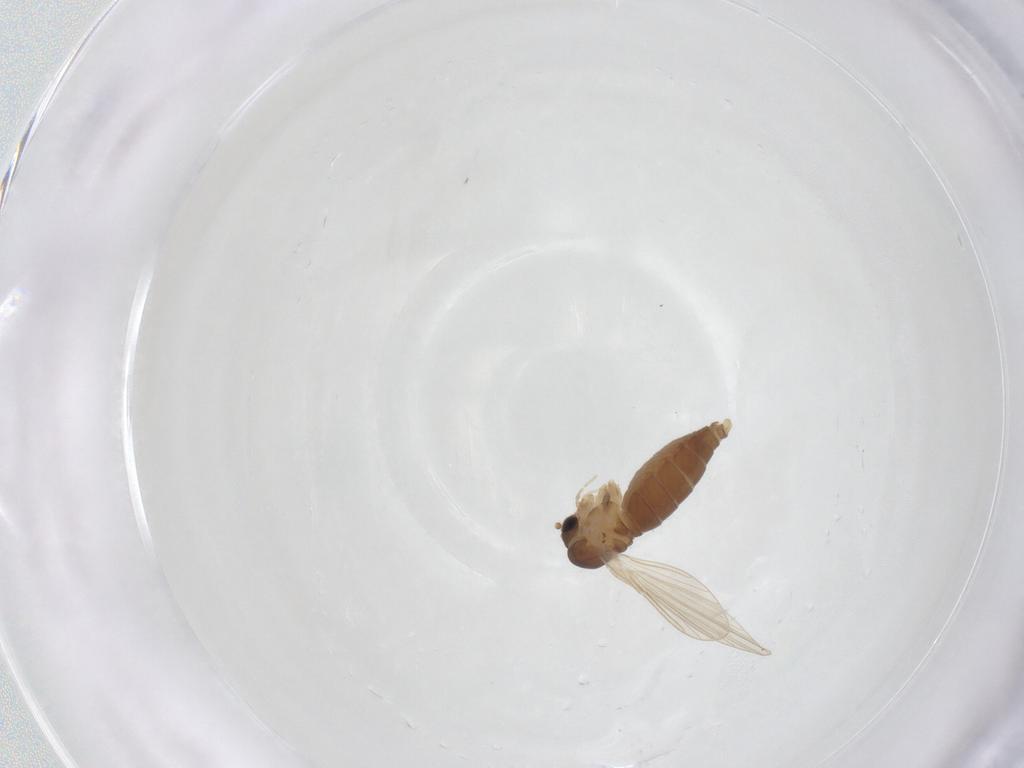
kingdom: Animalia
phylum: Arthropoda
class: Insecta
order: Diptera
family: Psychodidae
